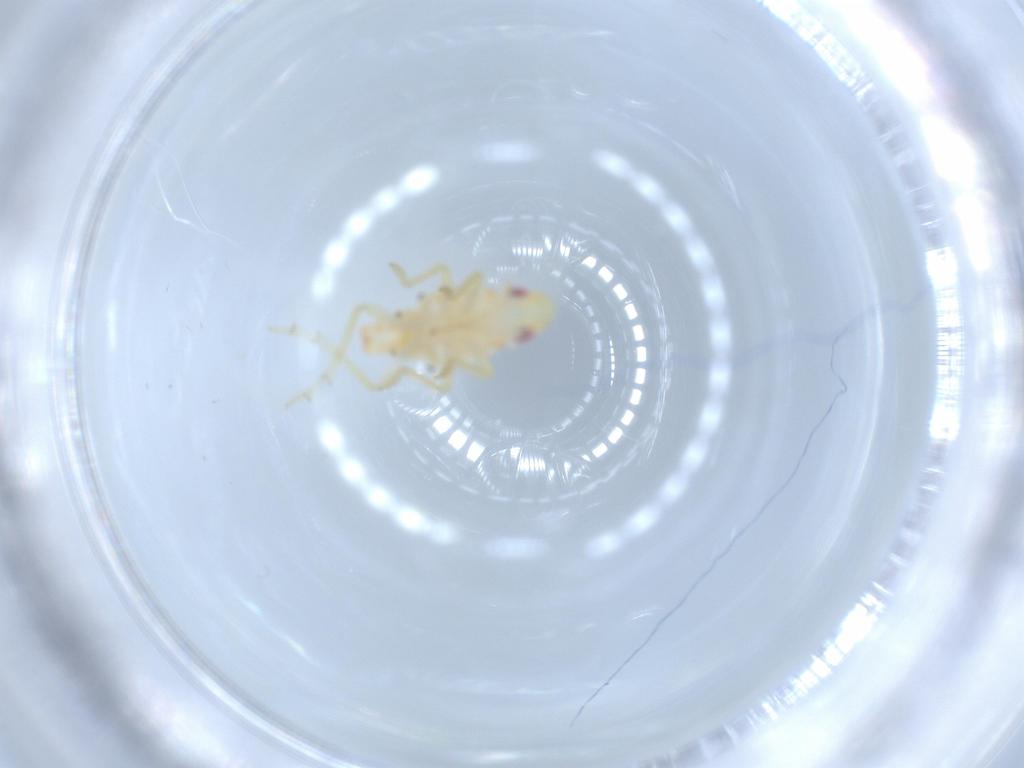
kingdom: Animalia
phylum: Arthropoda
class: Insecta
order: Hemiptera
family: Tropiduchidae
